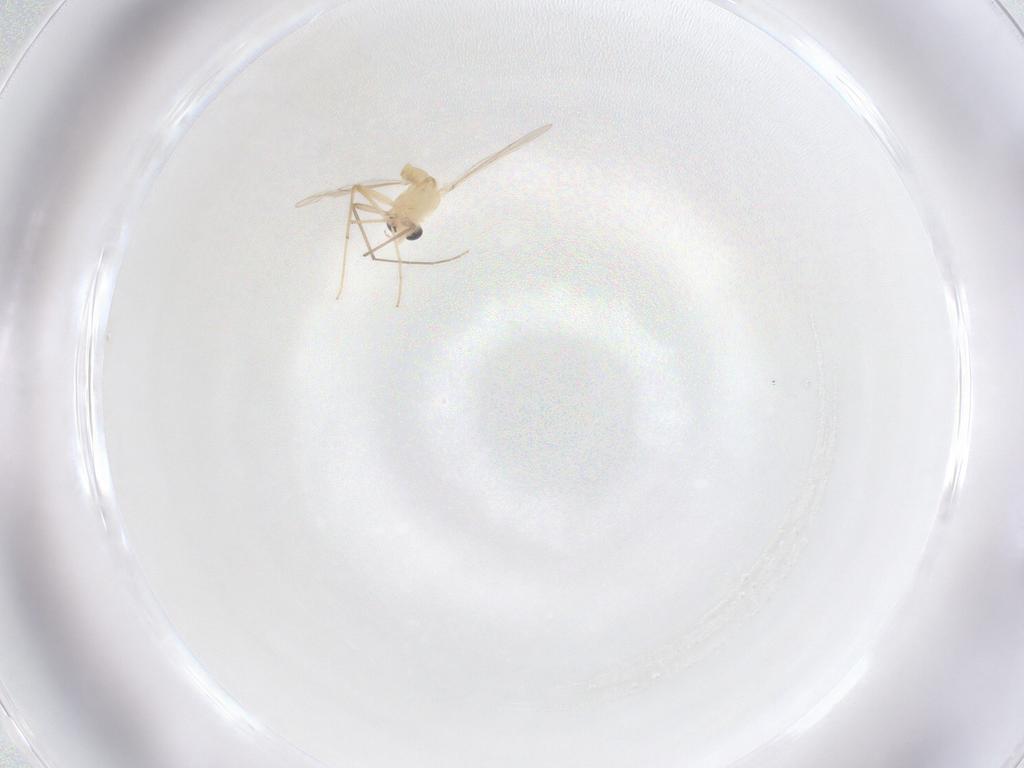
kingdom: Animalia
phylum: Arthropoda
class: Insecta
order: Diptera
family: Chironomidae
